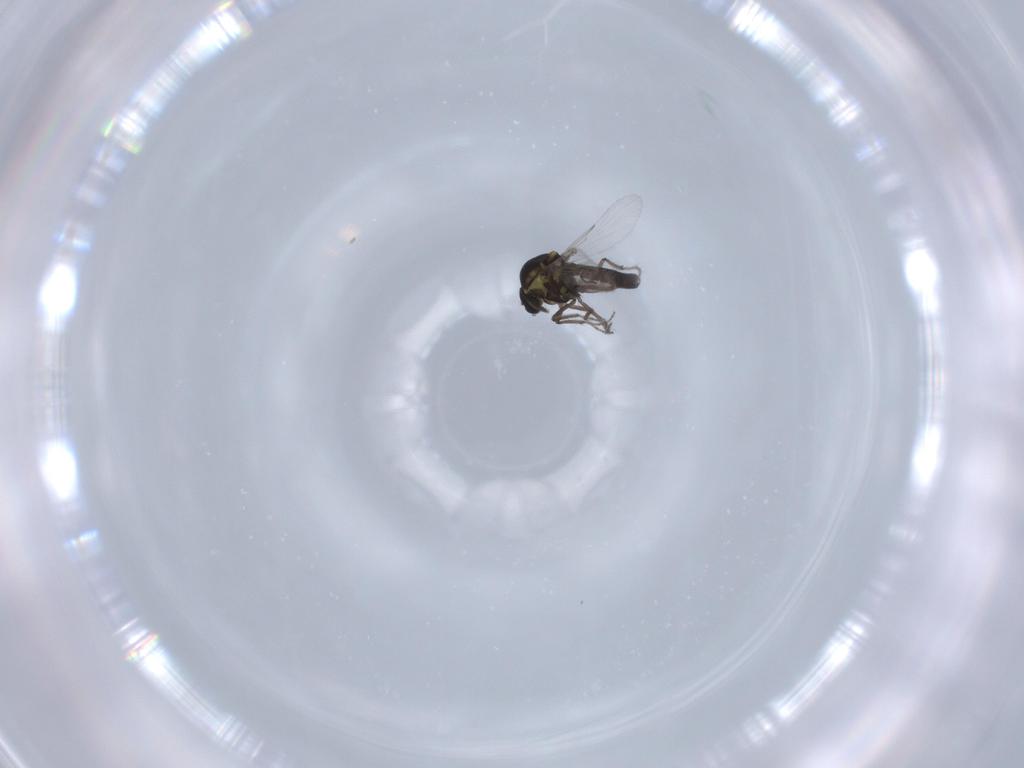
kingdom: Animalia
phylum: Arthropoda
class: Insecta
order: Diptera
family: Ceratopogonidae
